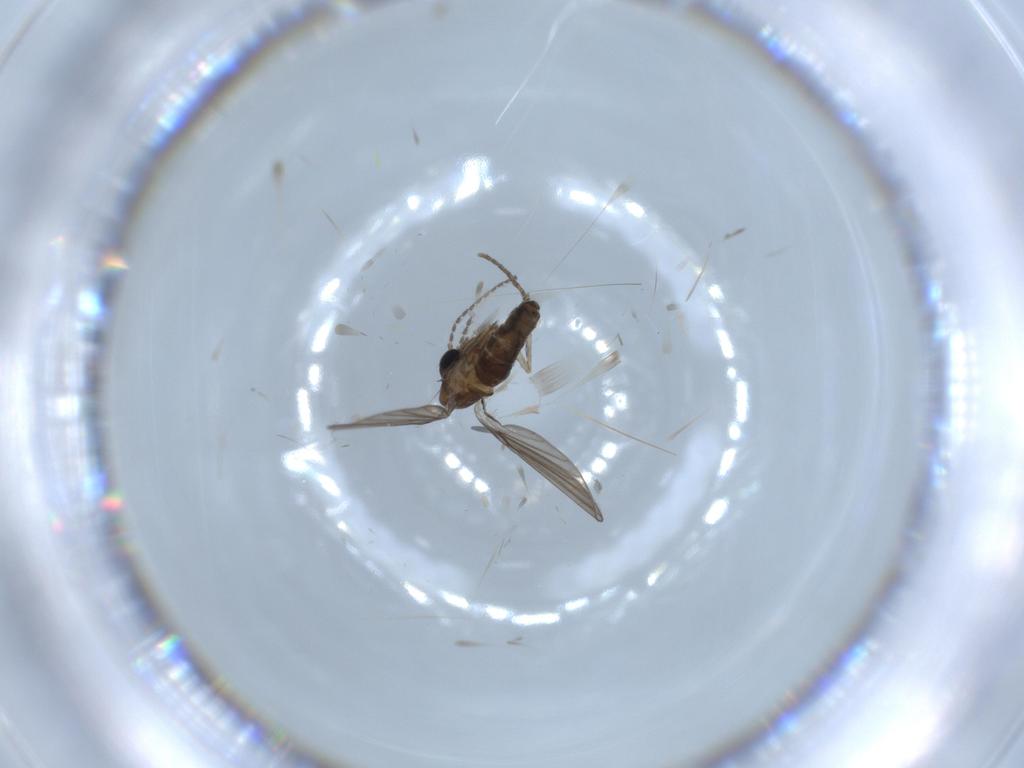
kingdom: Animalia
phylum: Arthropoda
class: Insecta
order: Diptera
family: Psychodidae
